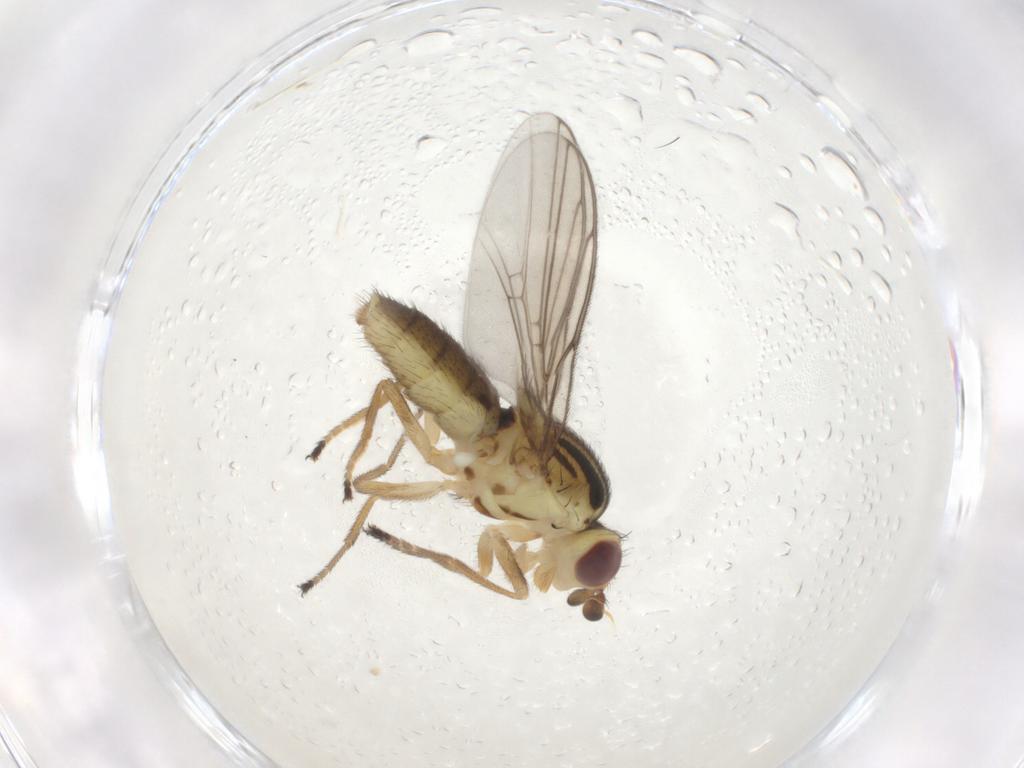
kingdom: Animalia
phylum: Arthropoda
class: Insecta
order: Diptera
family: Chloropidae
